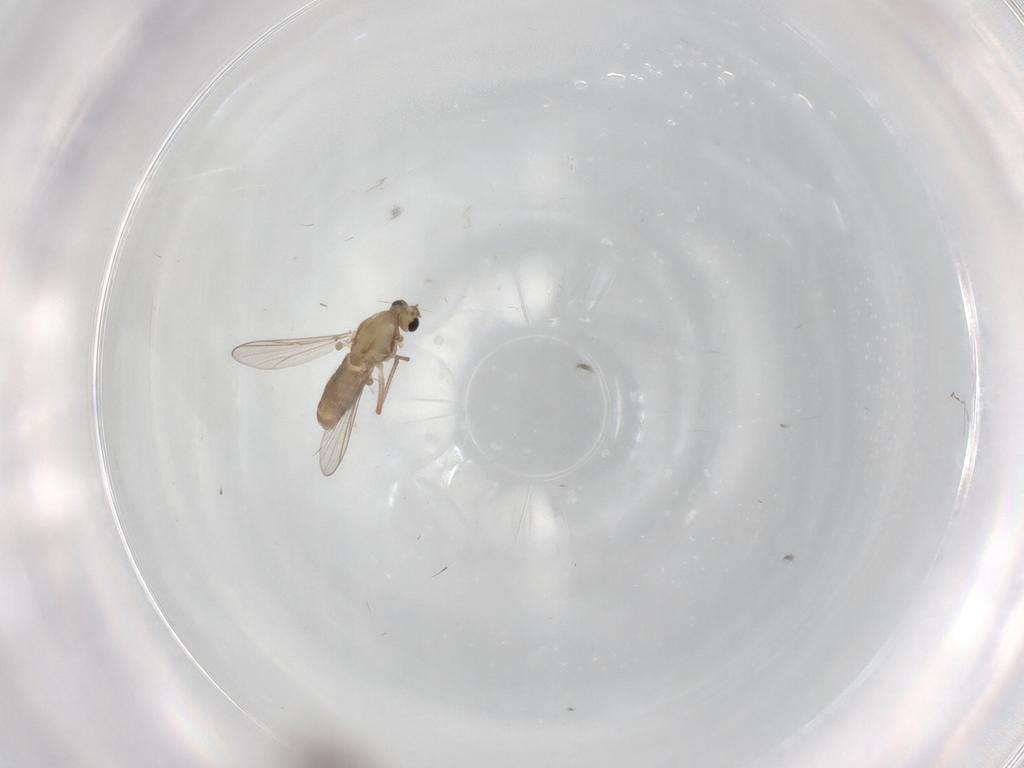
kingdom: Animalia
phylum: Arthropoda
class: Insecta
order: Diptera
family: Psychodidae
